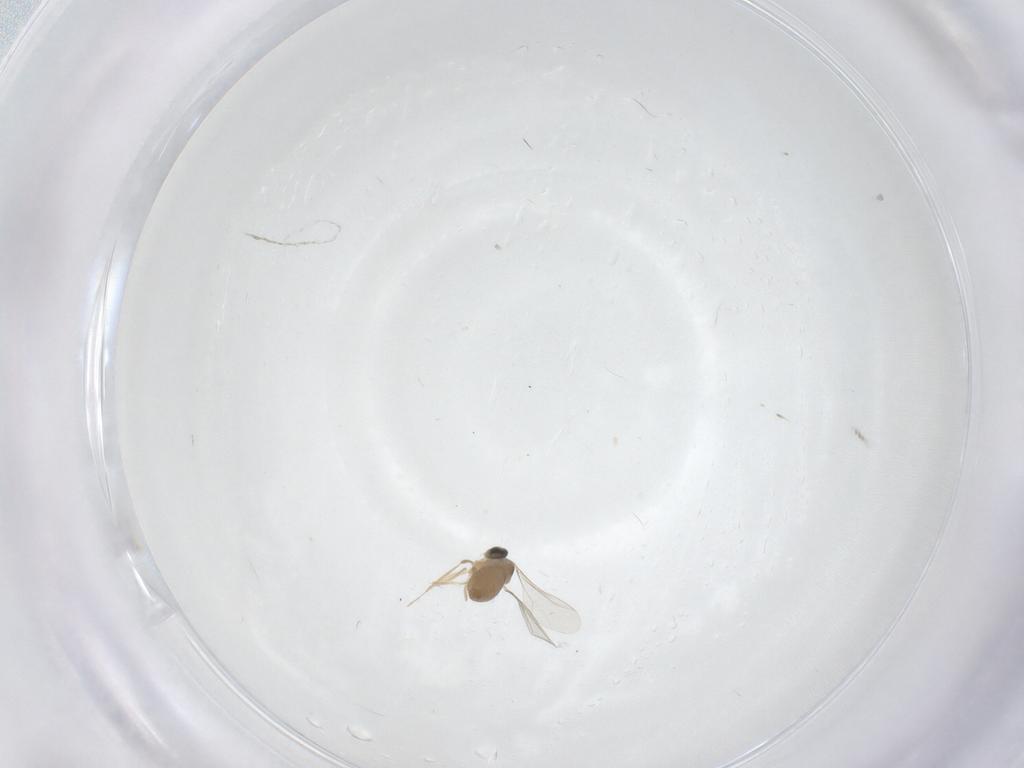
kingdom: Animalia
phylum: Arthropoda
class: Insecta
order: Diptera
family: Cecidomyiidae
